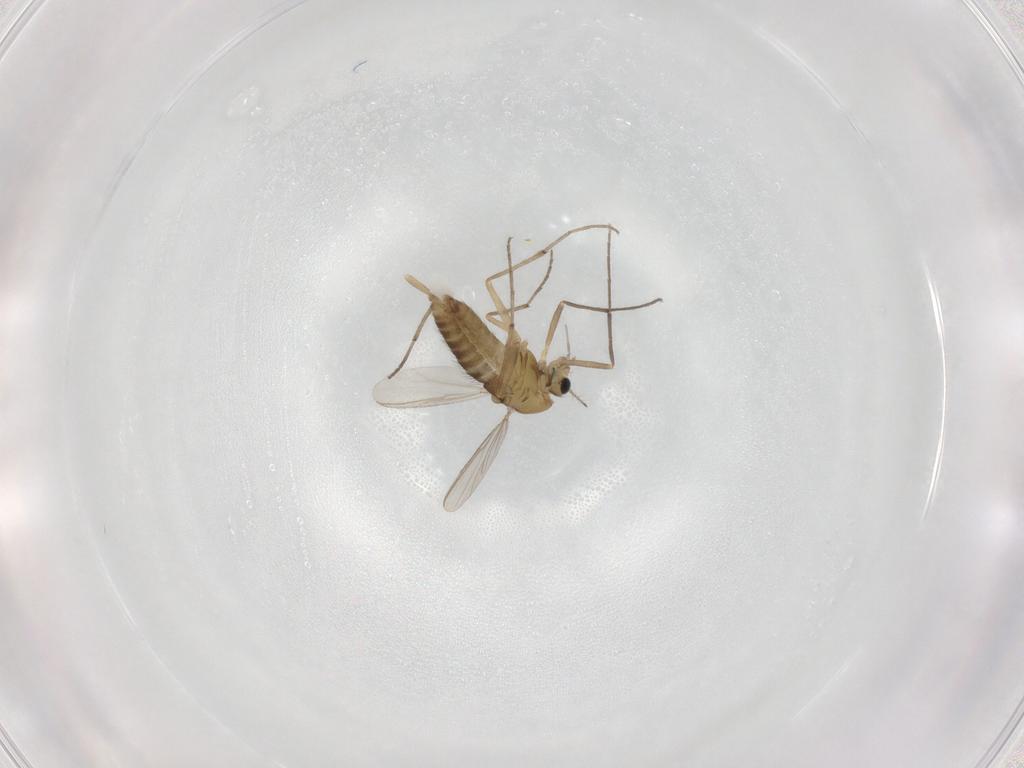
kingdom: Animalia
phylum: Arthropoda
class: Insecta
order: Diptera
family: Chironomidae
